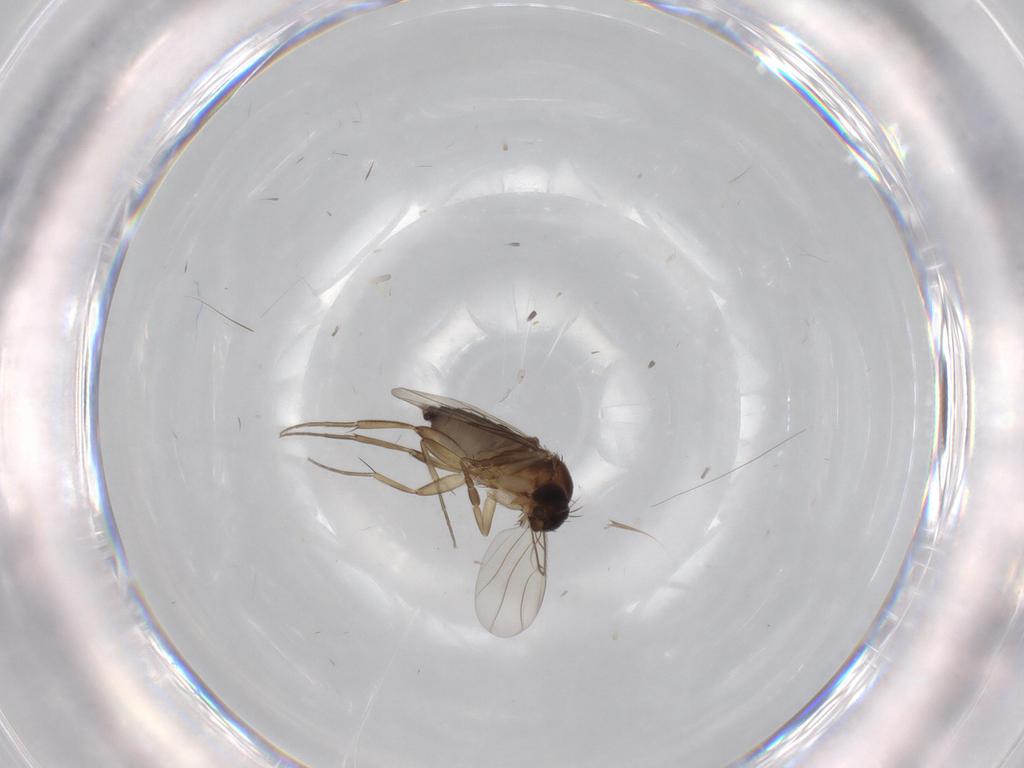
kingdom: Animalia
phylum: Arthropoda
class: Insecta
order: Diptera
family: Phoridae
